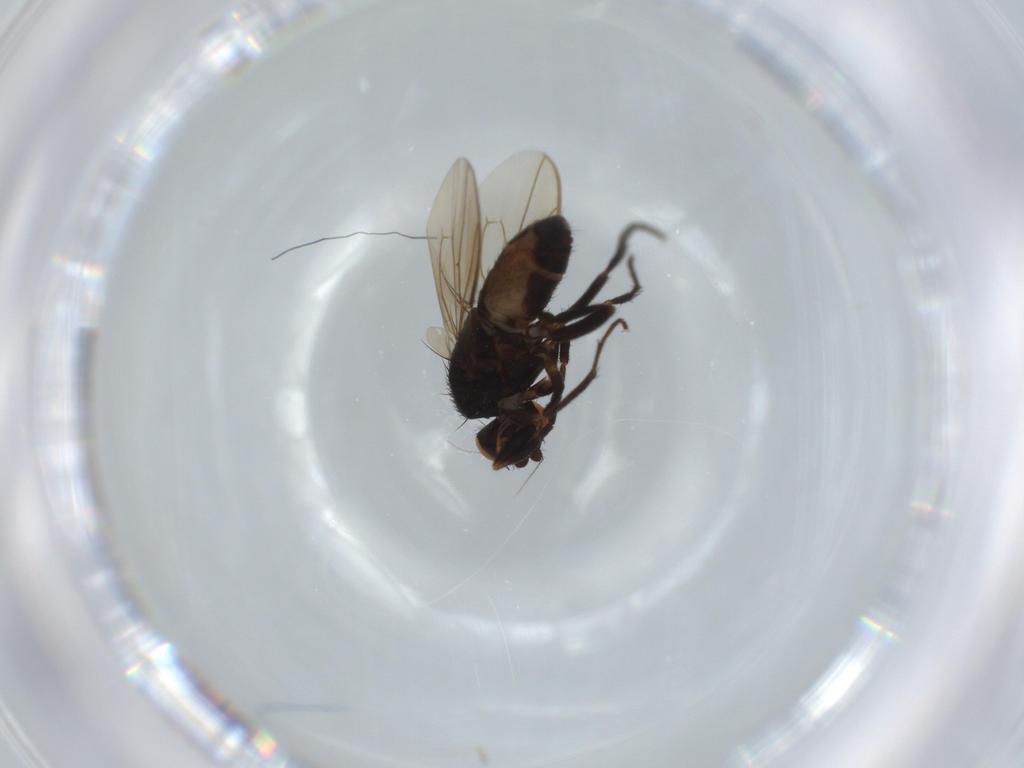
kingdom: Animalia
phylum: Arthropoda
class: Insecta
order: Diptera
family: Sphaeroceridae
